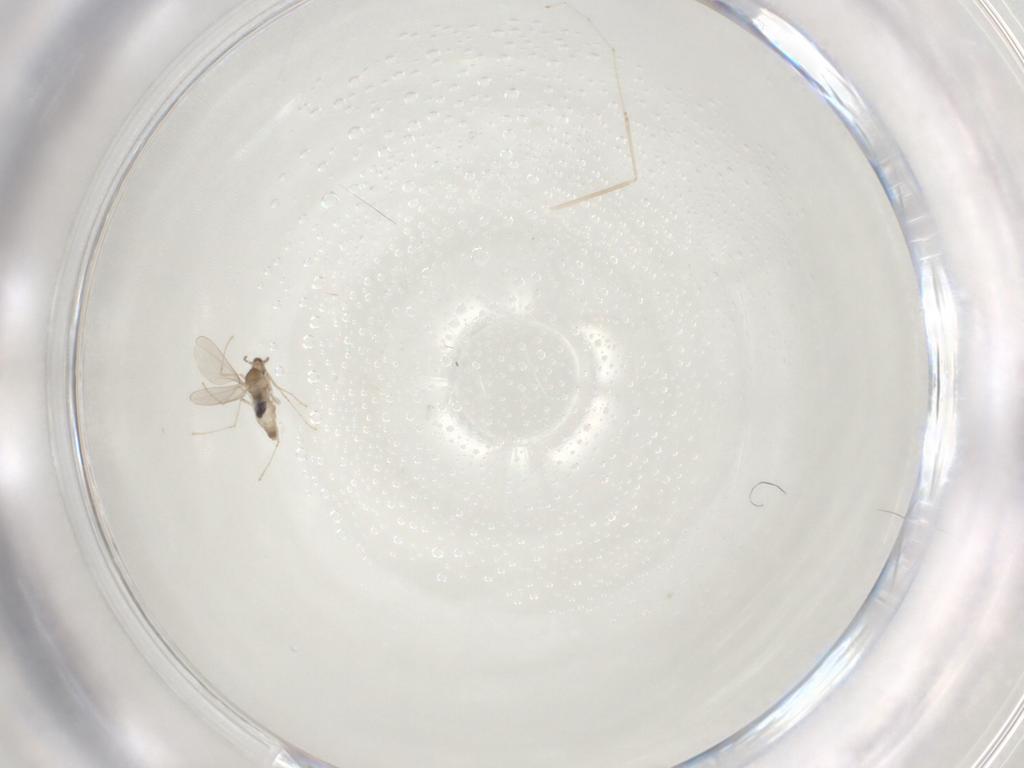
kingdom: Animalia
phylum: Arthropoda
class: Insecta
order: Diptera
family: Cecidomyiidae
